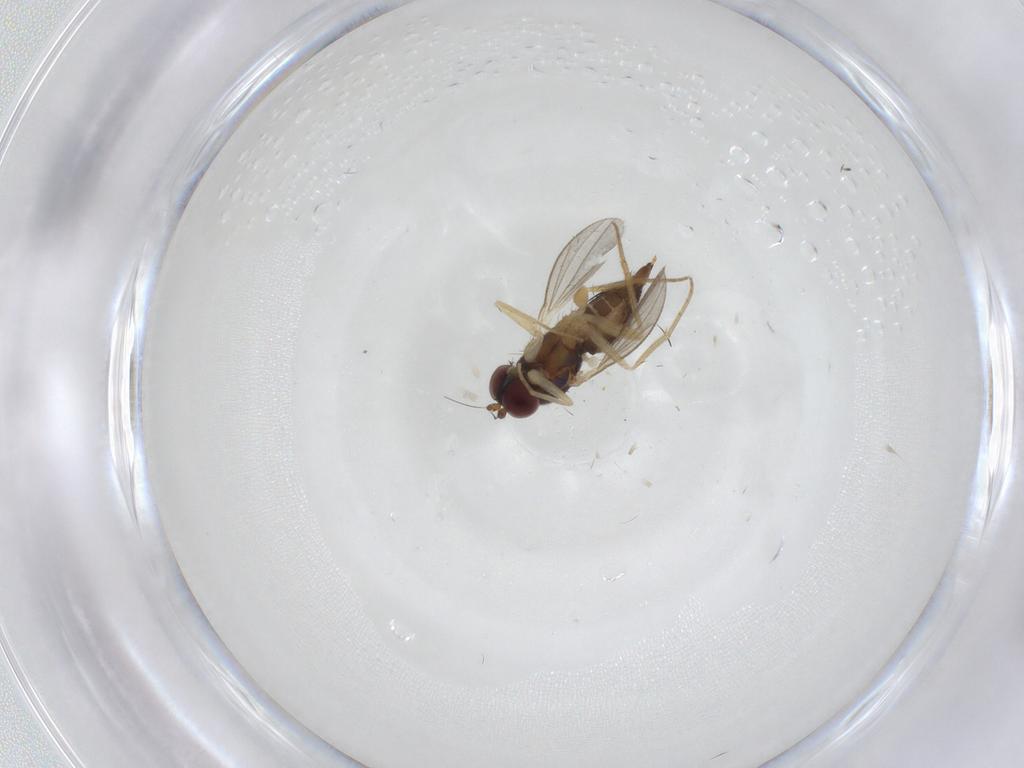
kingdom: Animalia
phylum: Arthropoda
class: Insecta
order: Diptera
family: Dolichopodidae
